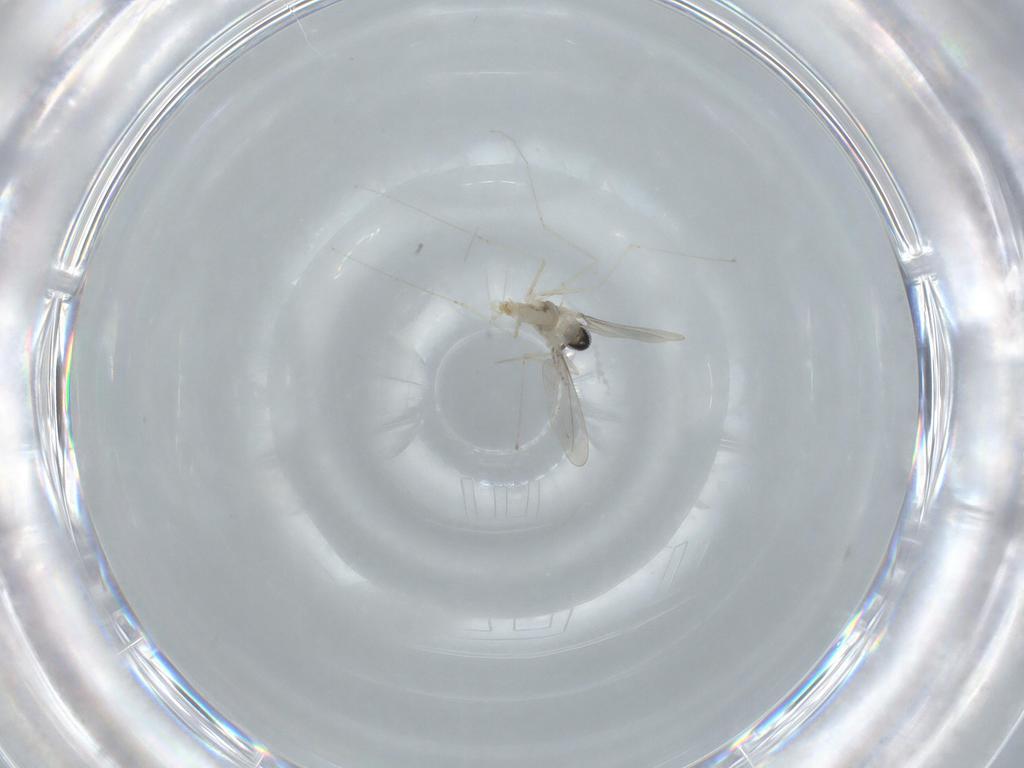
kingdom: Animalia
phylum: Arthropoda
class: Insecta
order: Diptera
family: Cecidomyiidae
